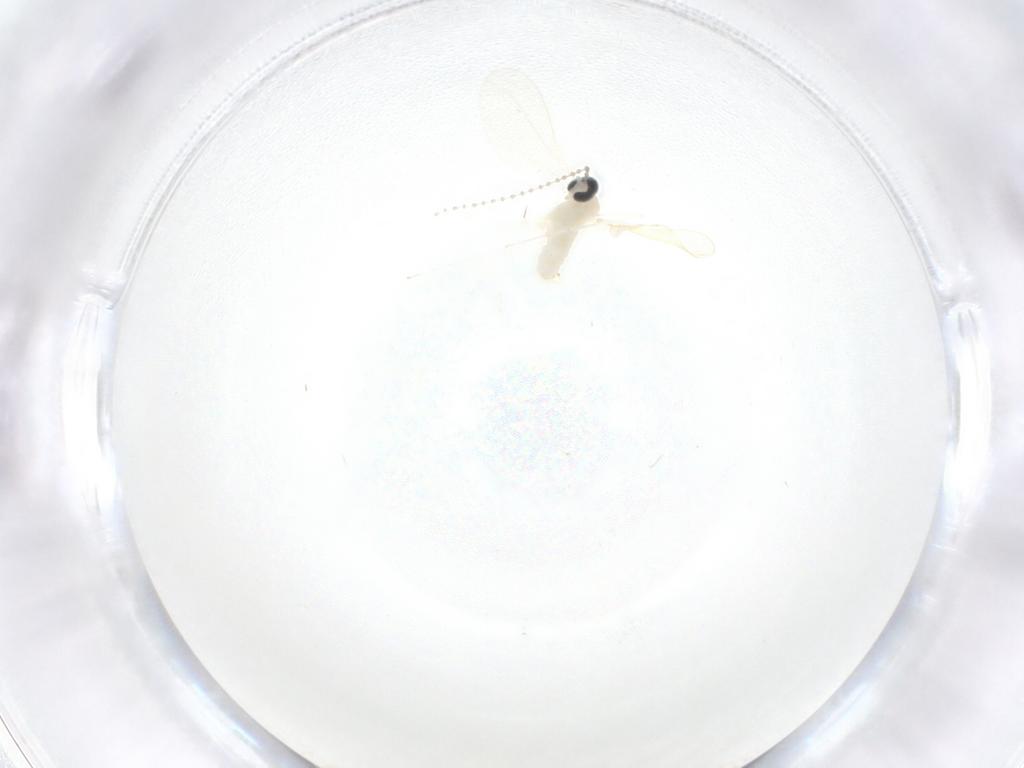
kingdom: Animalia
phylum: Arthropoda
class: Insecta
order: Diptera
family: Cecidomyiidae
